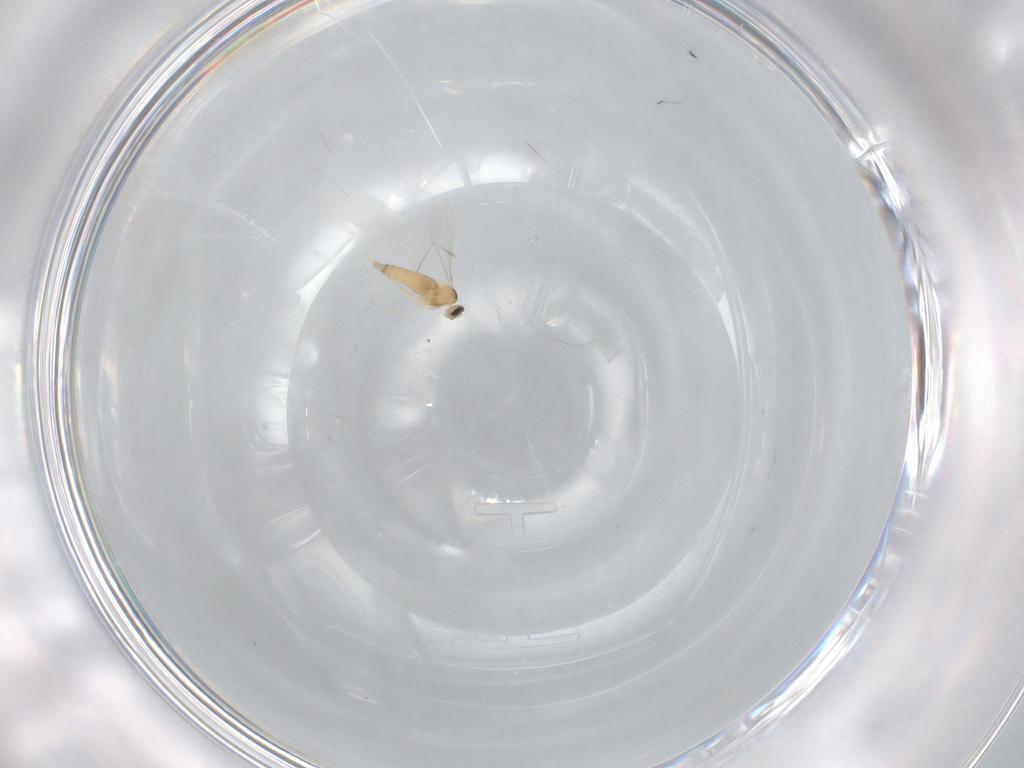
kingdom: Animalia
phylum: Arthropoda
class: Insecta
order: Diptera
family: Cecidomyiidae
